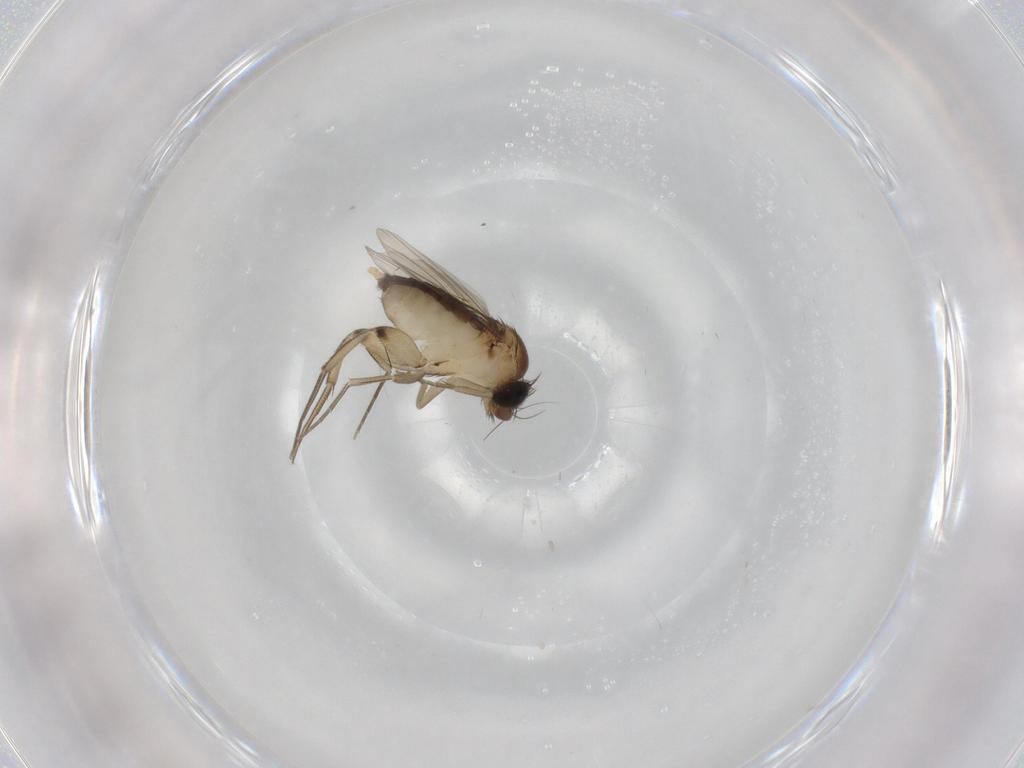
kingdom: Animalia
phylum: Arthropoda
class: Insecta
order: Diptera
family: Phoridae
